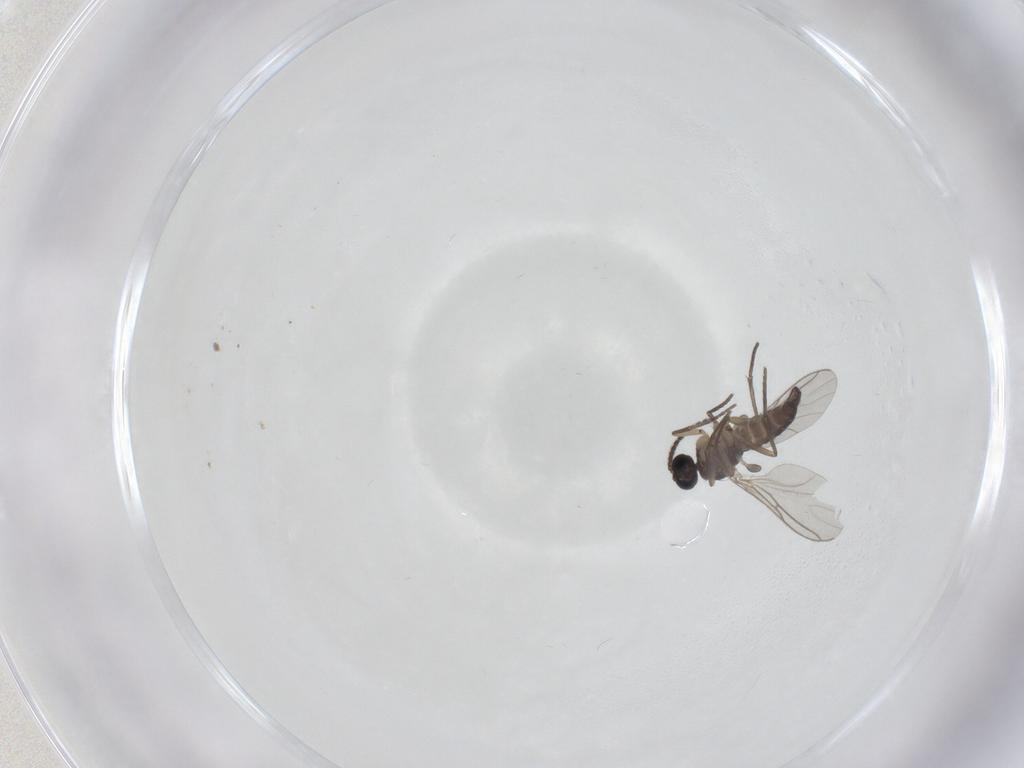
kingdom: Animalia
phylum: Arthropoda
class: Insecta
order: Diptera
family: Sciaridae
